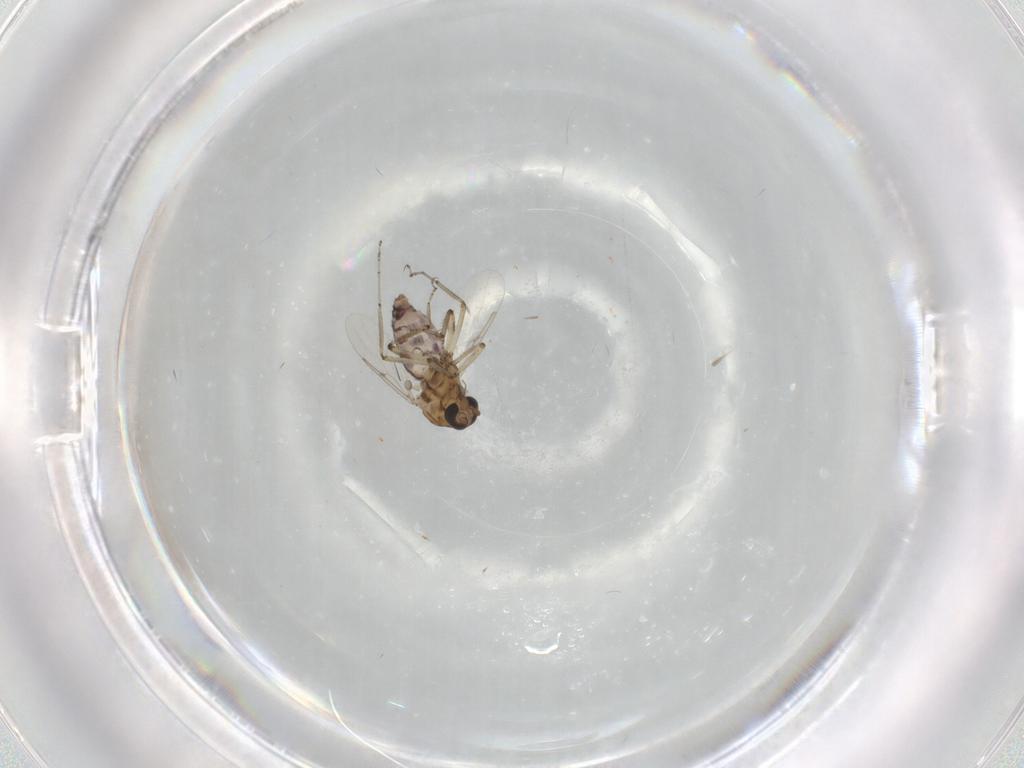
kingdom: Animalia
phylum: Arthropoda
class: Insecta
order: Diptera
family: Ceratopogonidae
